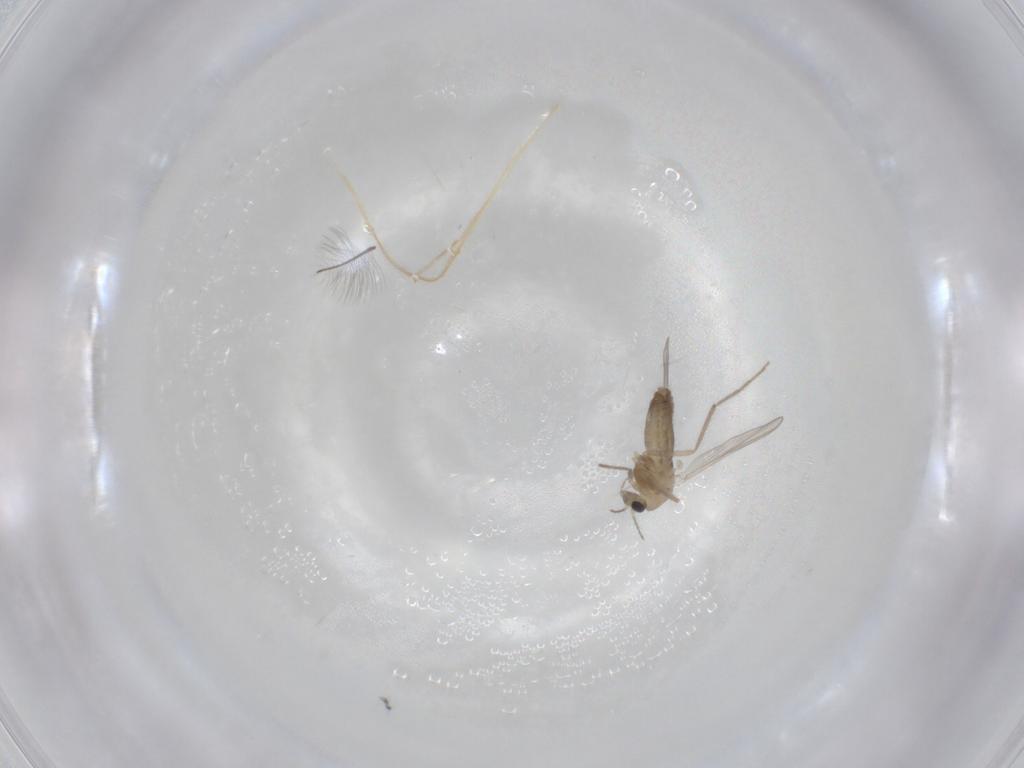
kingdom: Animalia
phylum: Arthropoda
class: Insecta
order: Diptera
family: Chironomidae
